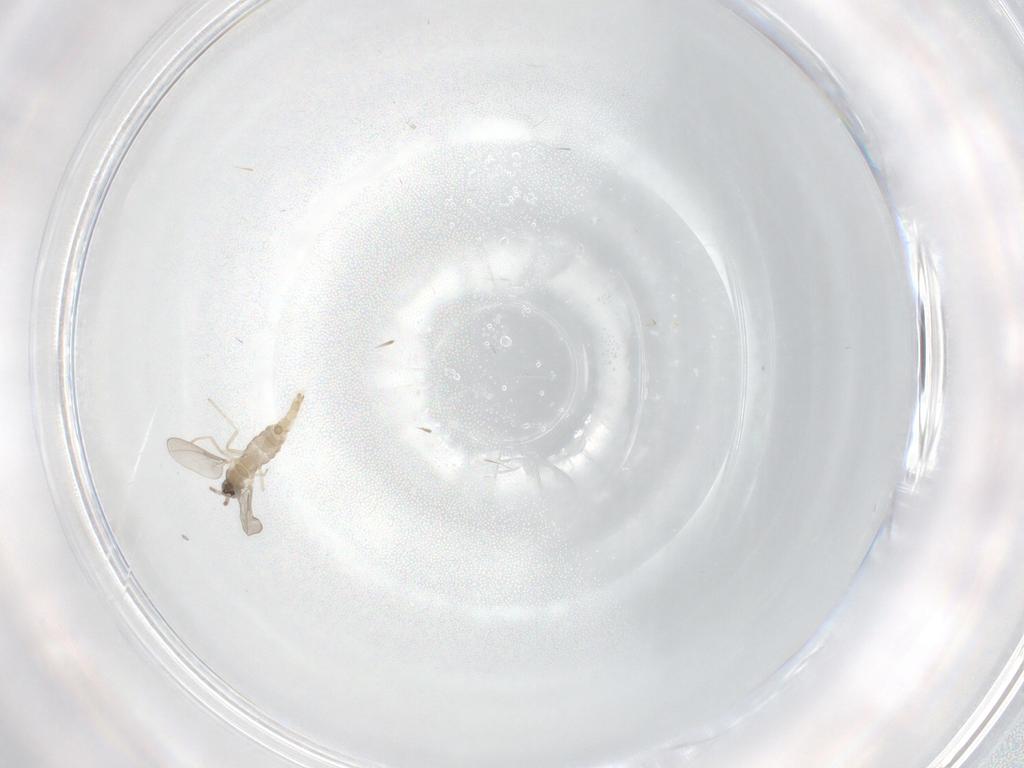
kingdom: Animalia
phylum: Arthropoda
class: Insecta
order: Diptera
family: Cecidomyiidae
